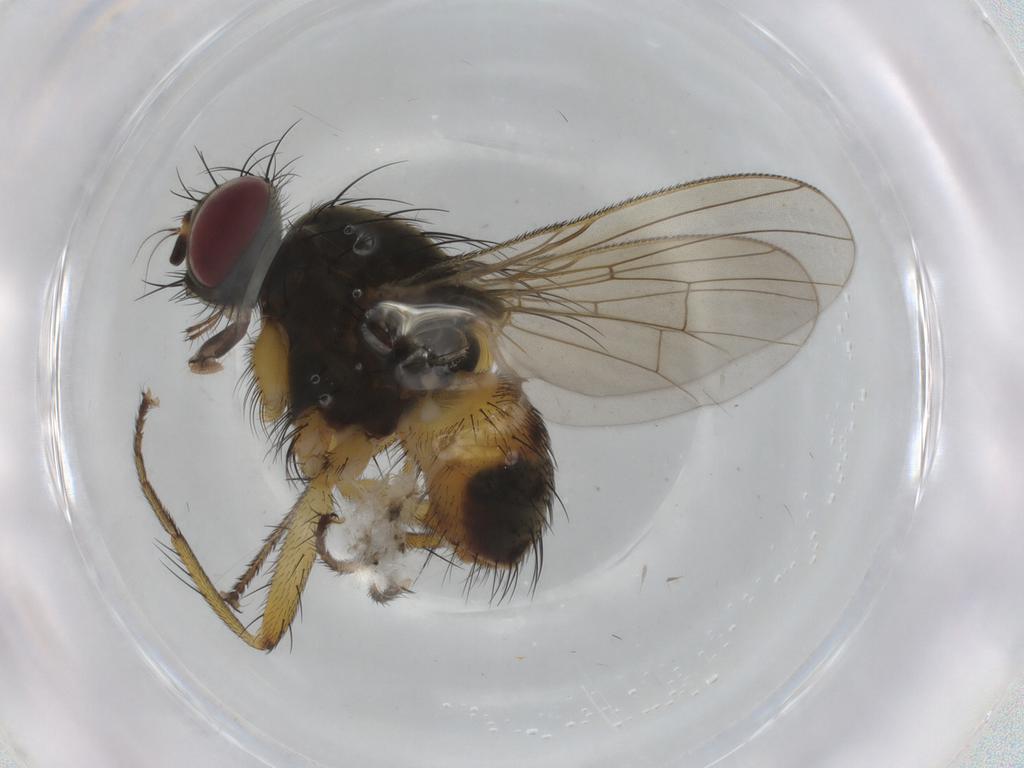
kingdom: Animalia
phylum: Arthropoda
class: Insecta
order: Diptera
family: Muscidae
